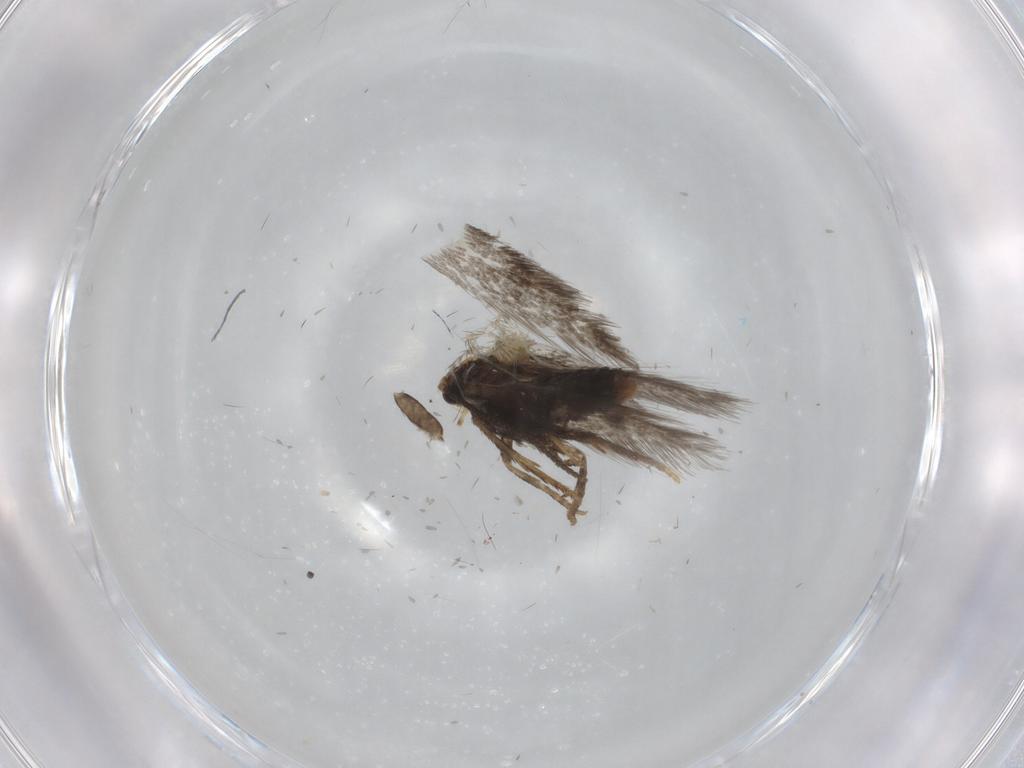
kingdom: Animalia
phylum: Arthropoda
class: Insecta
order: Lepidoptera
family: Nepticulidae
